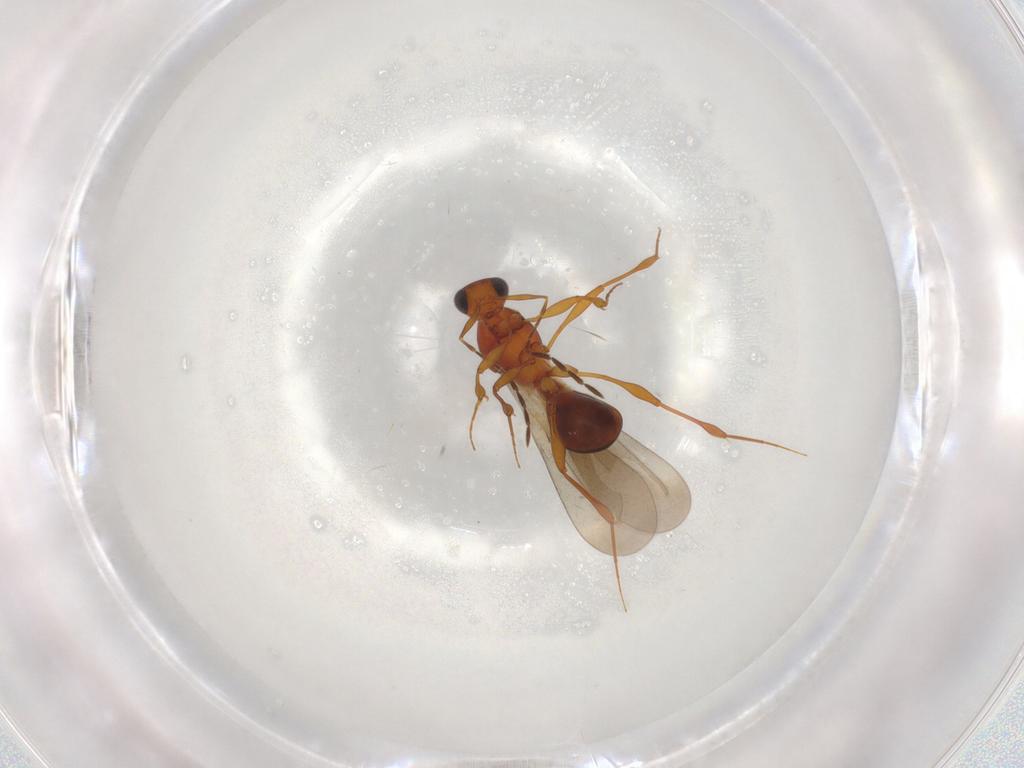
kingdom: Animalia
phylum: Arthropoda
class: Insecta
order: Hymenoptera
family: Platygastridae
